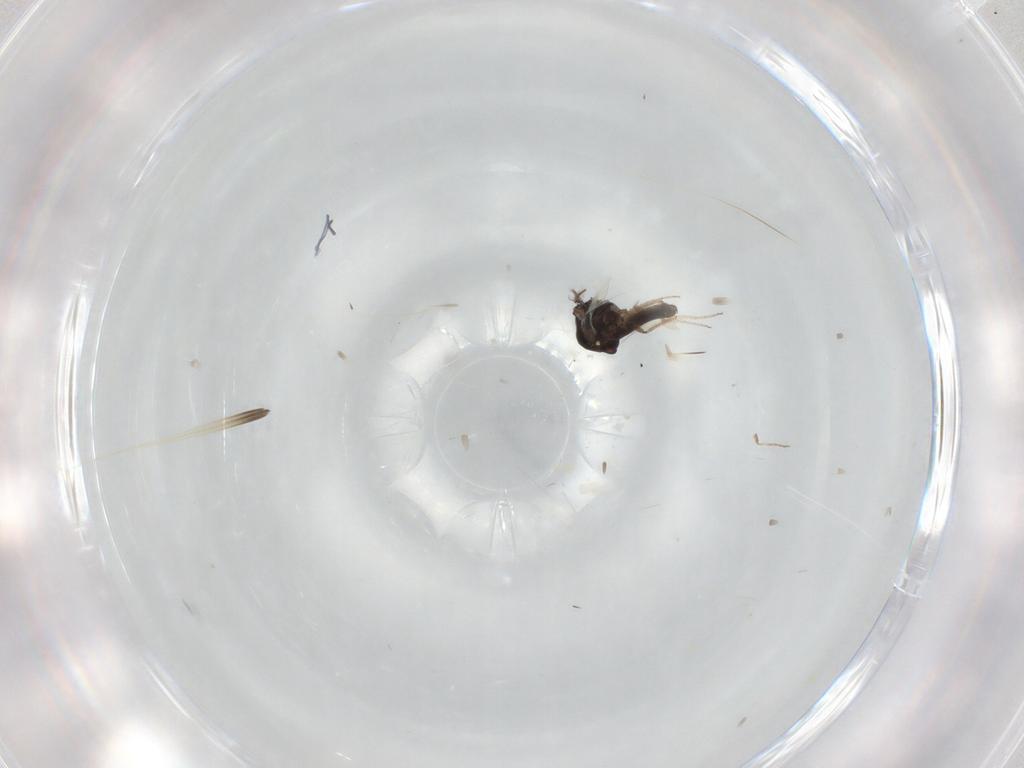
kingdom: Animalia
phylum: Arthropoda
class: Insecta
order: Diptera
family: Ceratopogonidae
